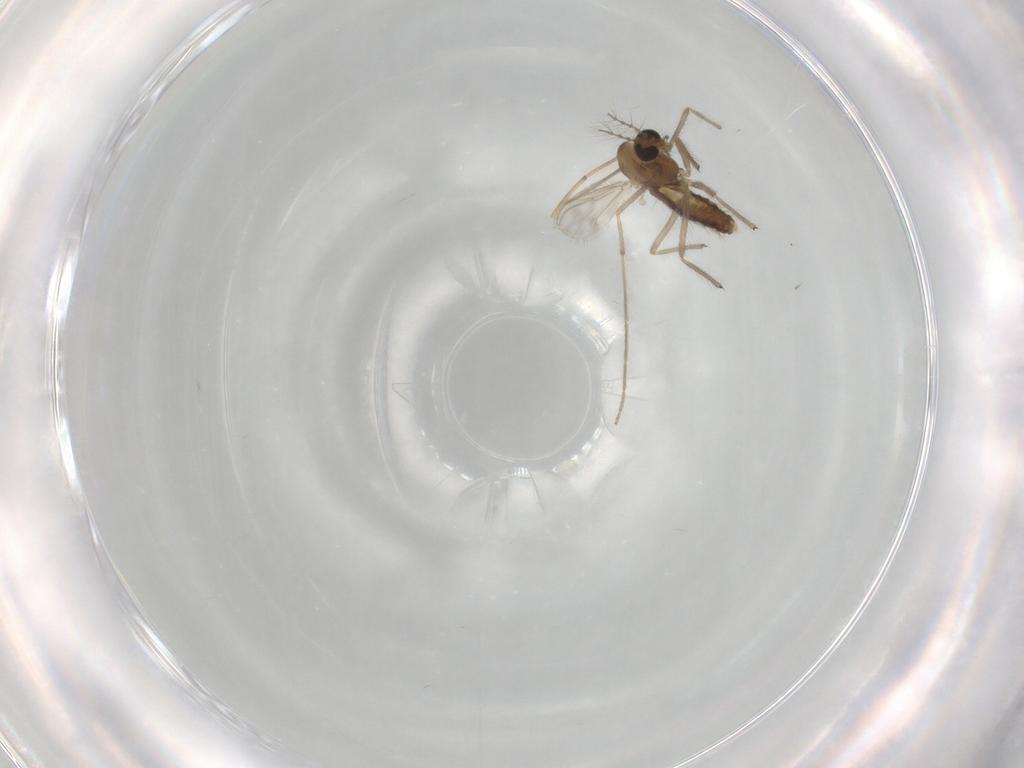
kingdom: Animalia
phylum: Arthropoda
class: Insecta
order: Diptera
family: Chironomidae
